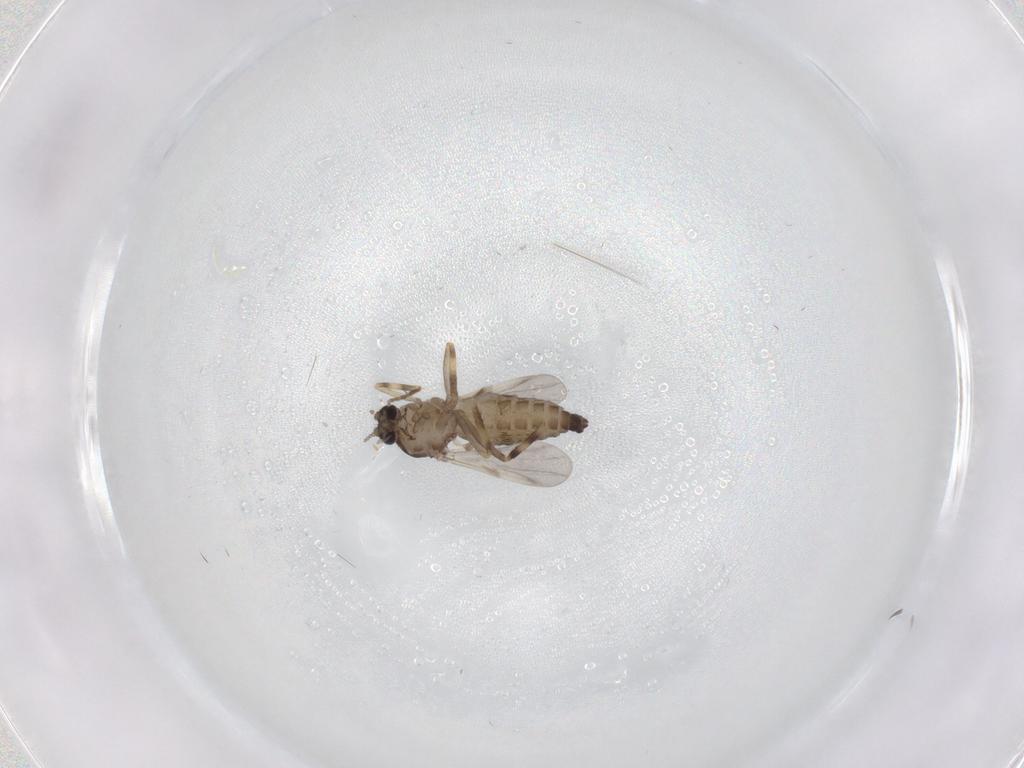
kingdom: Animalia
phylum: Arthropoda
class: Insecta
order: Diptera
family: Ceratopogonidae
